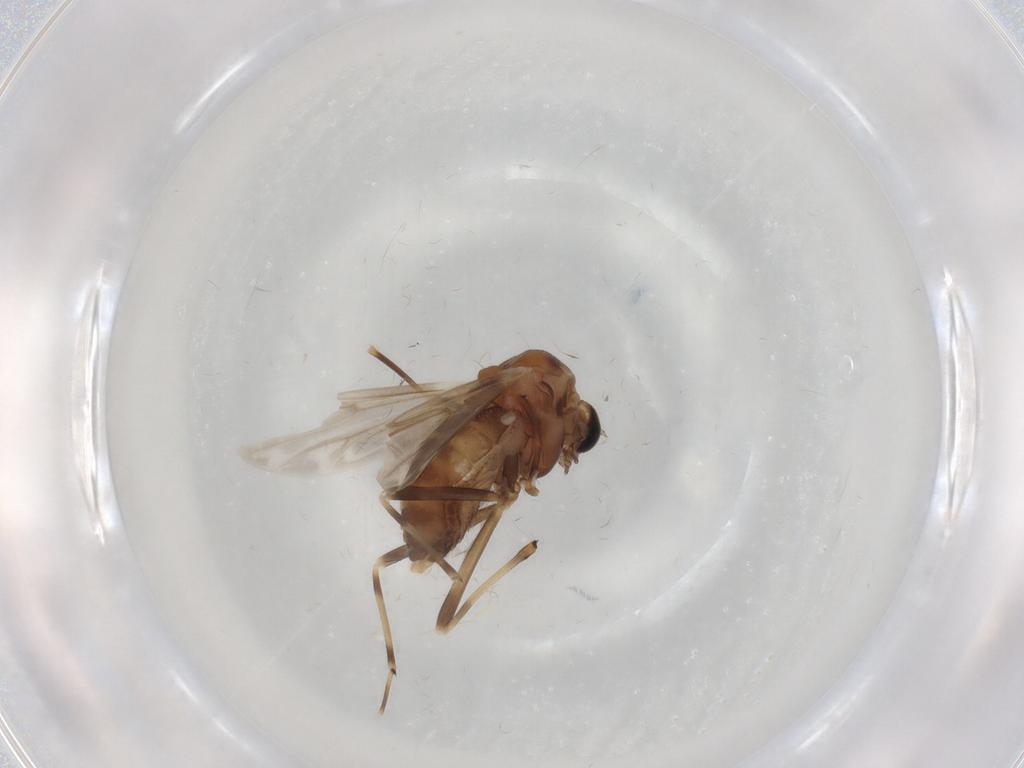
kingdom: Animalia
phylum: Arthropoda
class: Insecta
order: Diptera
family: Chironomidae
